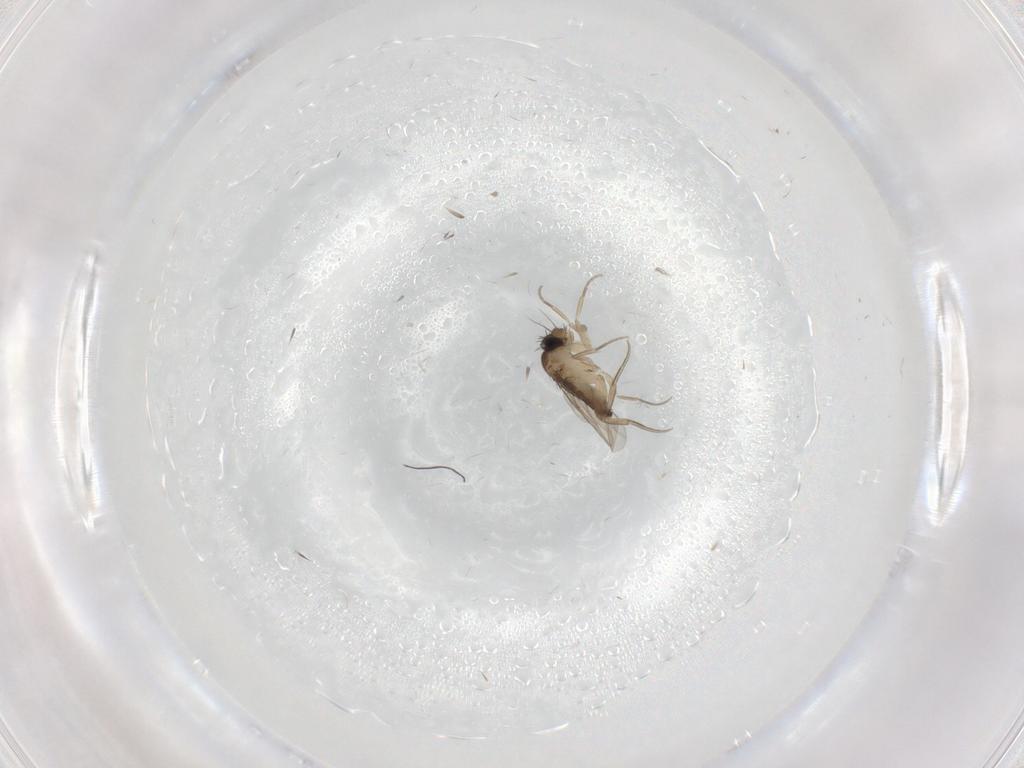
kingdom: Animalia
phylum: Arthropoda
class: Insecta
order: Diptera
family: Phoridae
